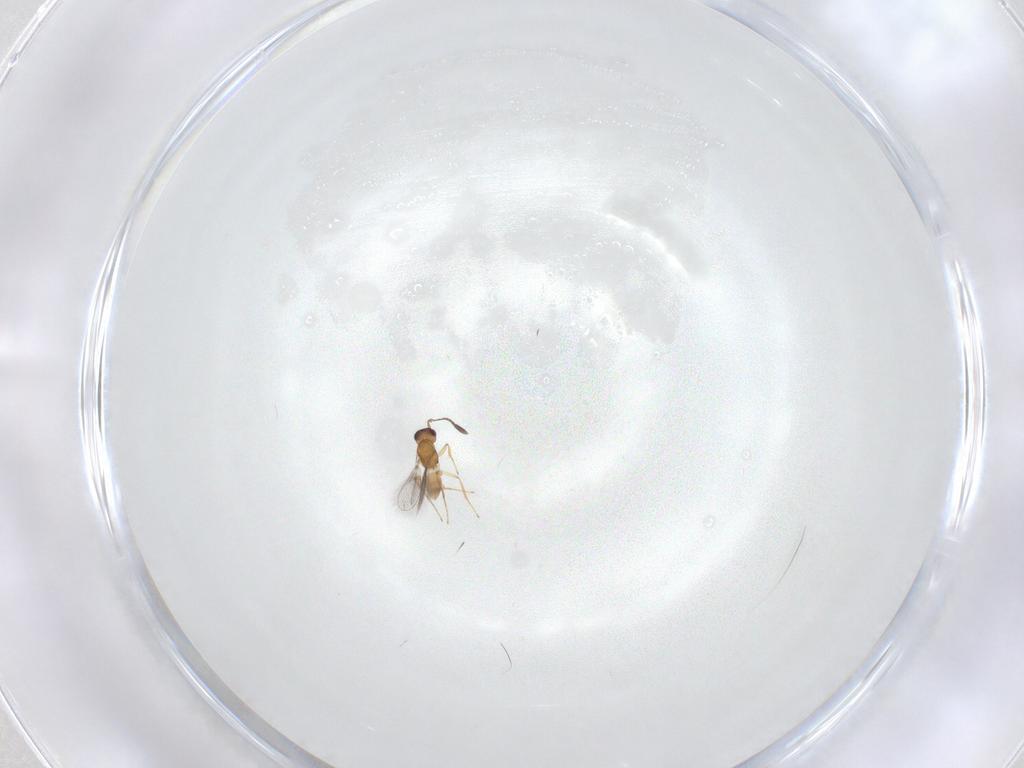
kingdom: Animalia
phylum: Arthropoda
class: Insecta
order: Hymenoptera
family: Mymaridae
